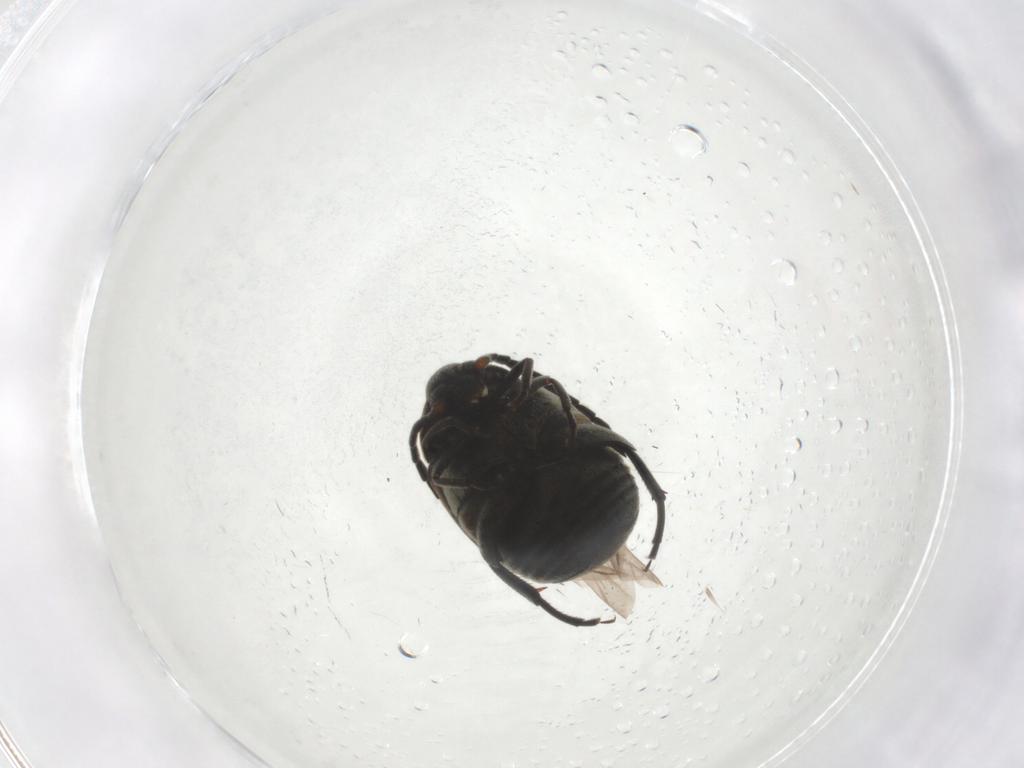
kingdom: Animalia
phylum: Arthropoda
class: Insecta
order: Coleoptera
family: Chrysomelidae
